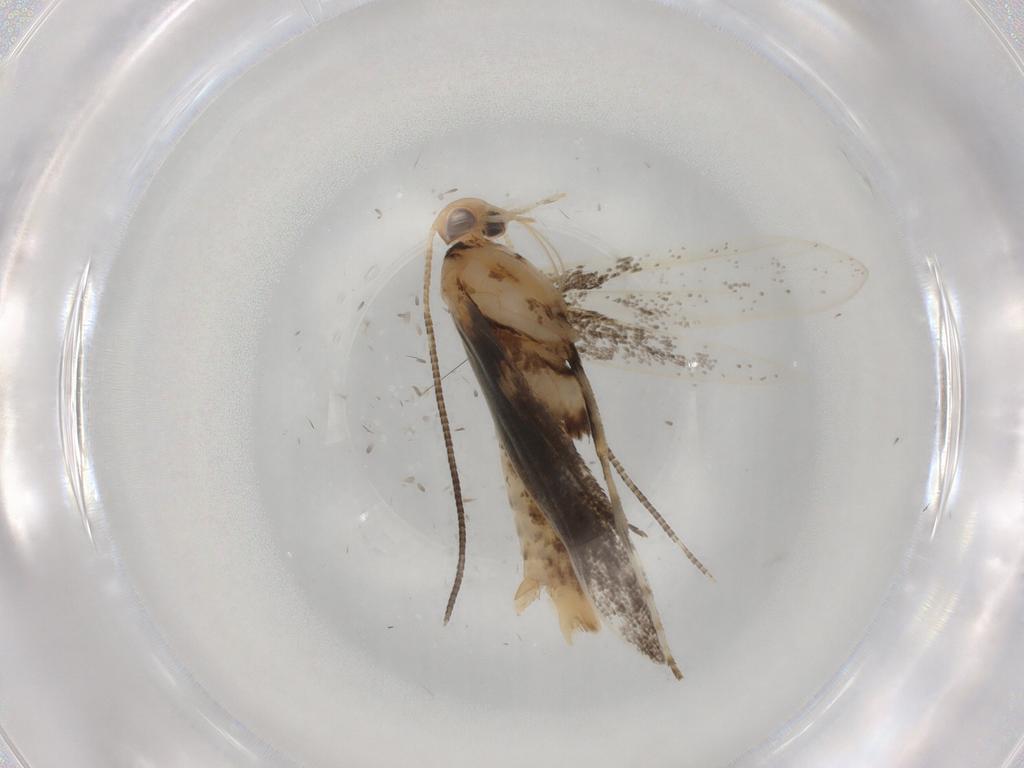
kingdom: Animalia
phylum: Arthropoda
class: Insecta
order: Lepidoptera
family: Gracillariidae
